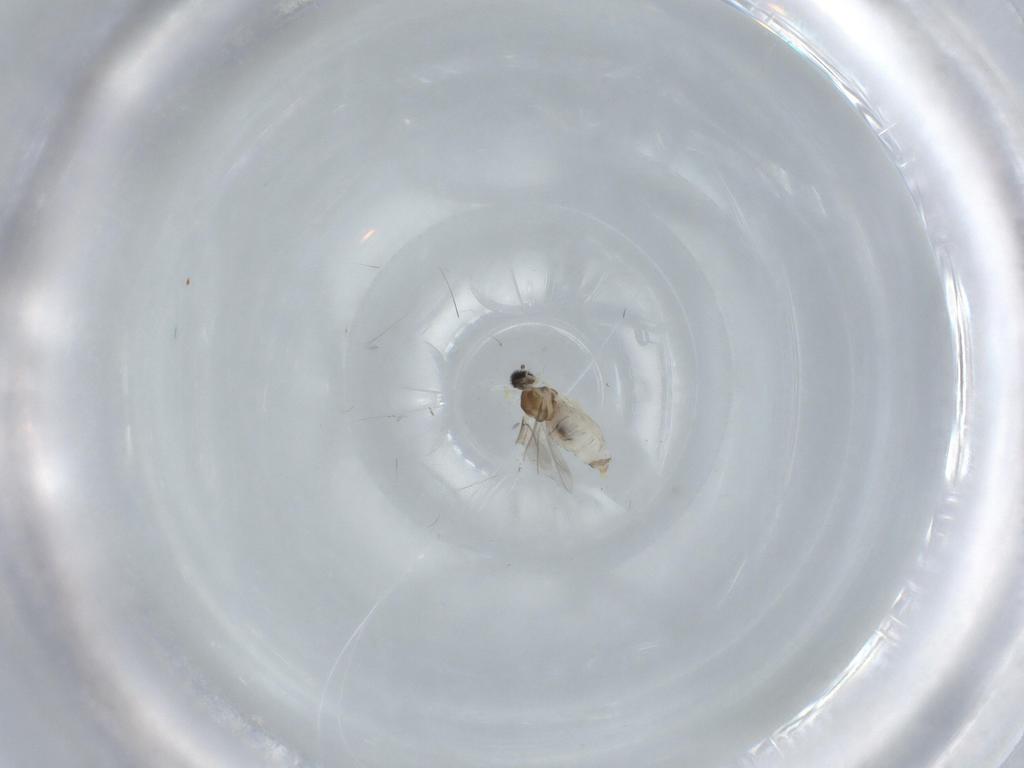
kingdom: Animalia
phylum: Arthropoda
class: Insecta
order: Diptera
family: Cecidomyiidae
